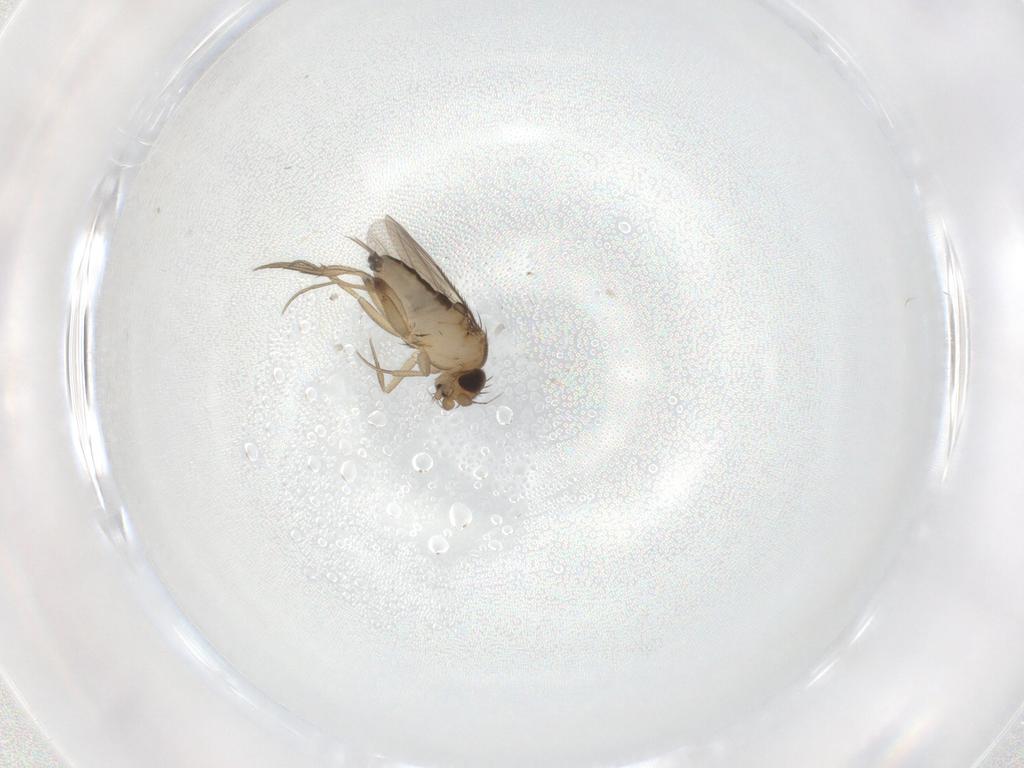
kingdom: Animalia
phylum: Arthropoda
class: Insecta
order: Diptera
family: Phoridae
